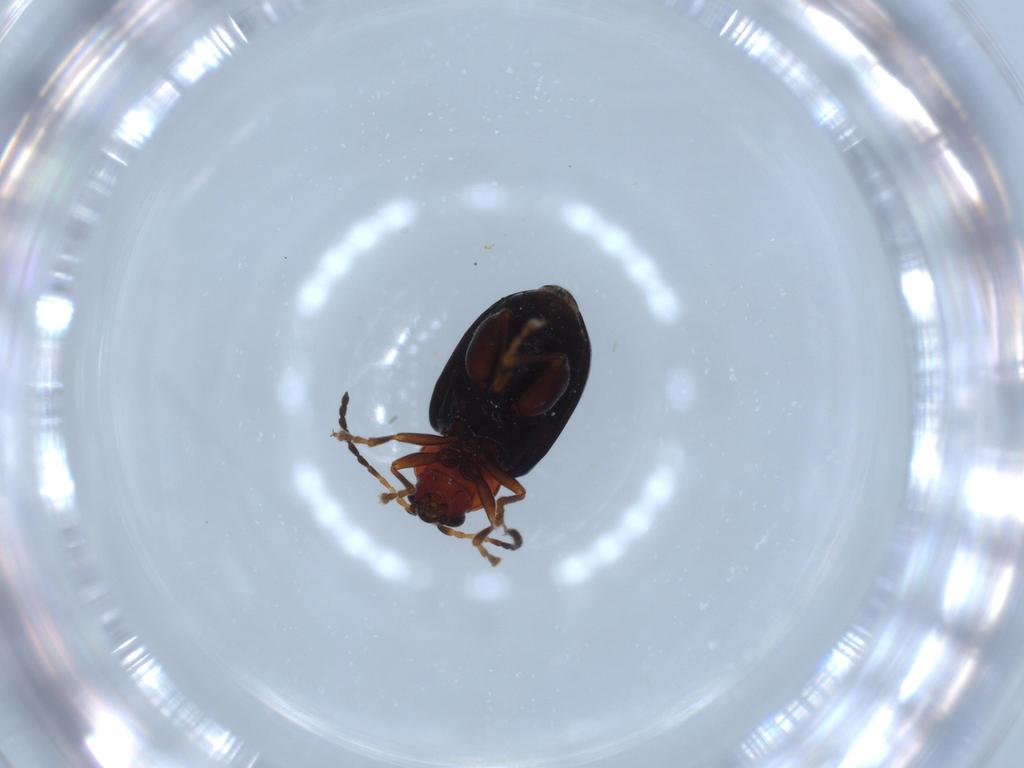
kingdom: Animalia
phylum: Arthropoda
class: Insecta
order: Coleoptera
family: Chrysomelidae
